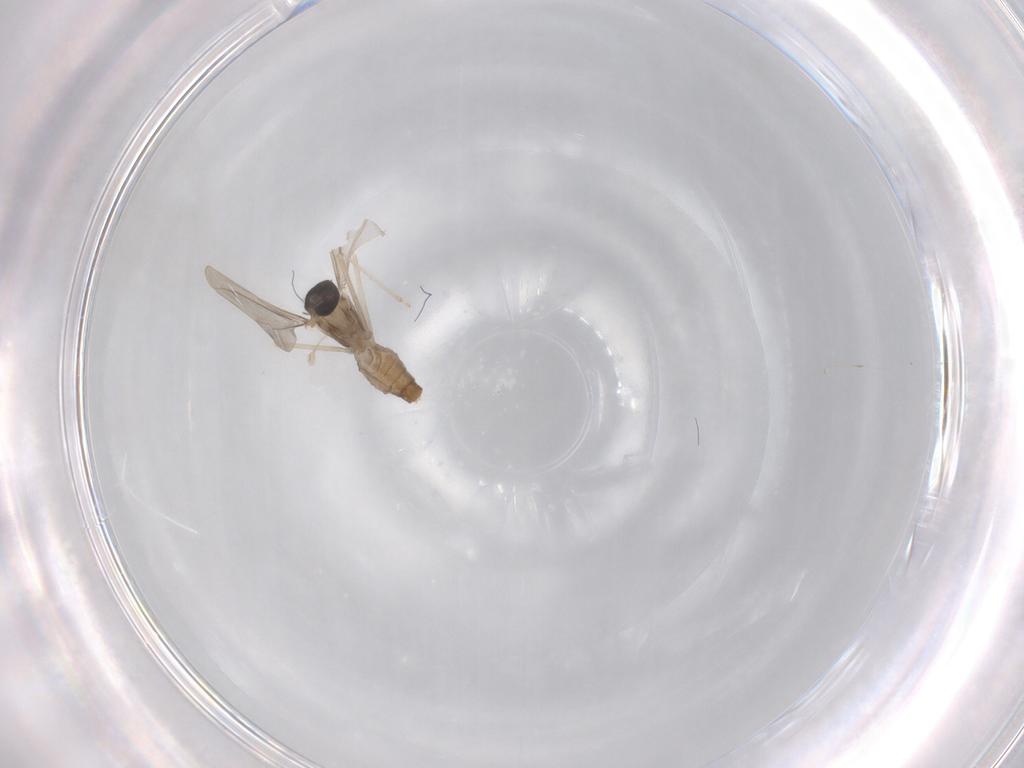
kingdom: Animalia
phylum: Arthropoda
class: Insecta
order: Diptera
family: Cecidomyiidae
